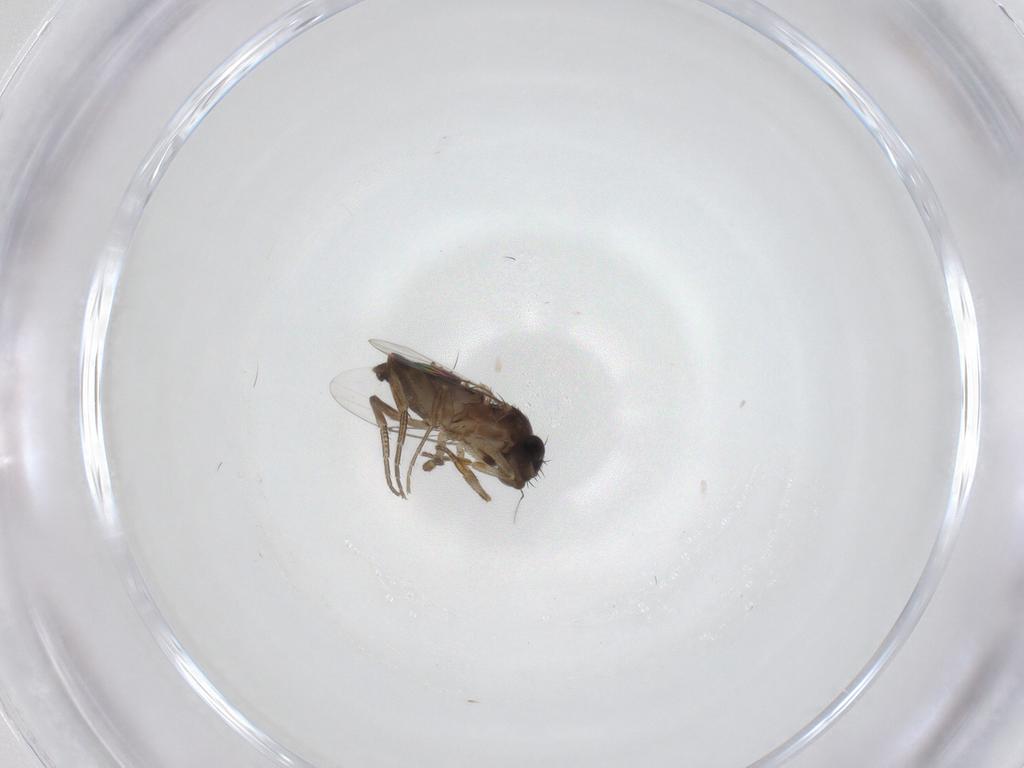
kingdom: Animalia
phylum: Arthropoda
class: Insecta
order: Diptera
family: Phoridae
